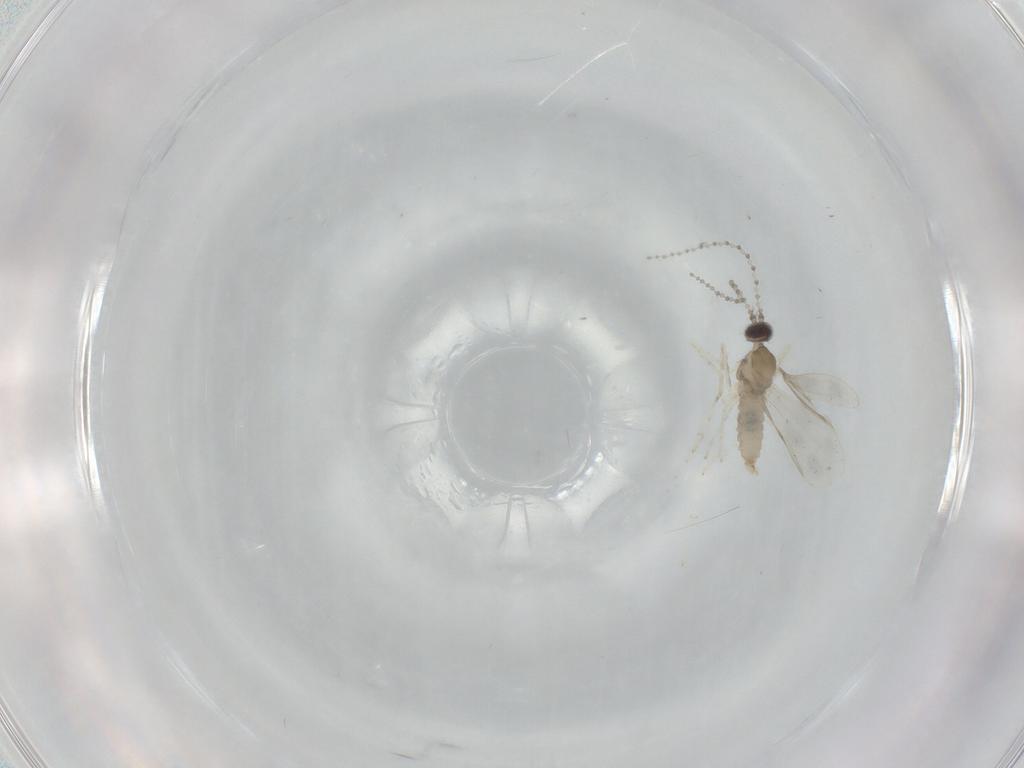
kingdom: Animalia
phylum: Arthropoda
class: Insecta
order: Diptera
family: Cecidomyiidae
